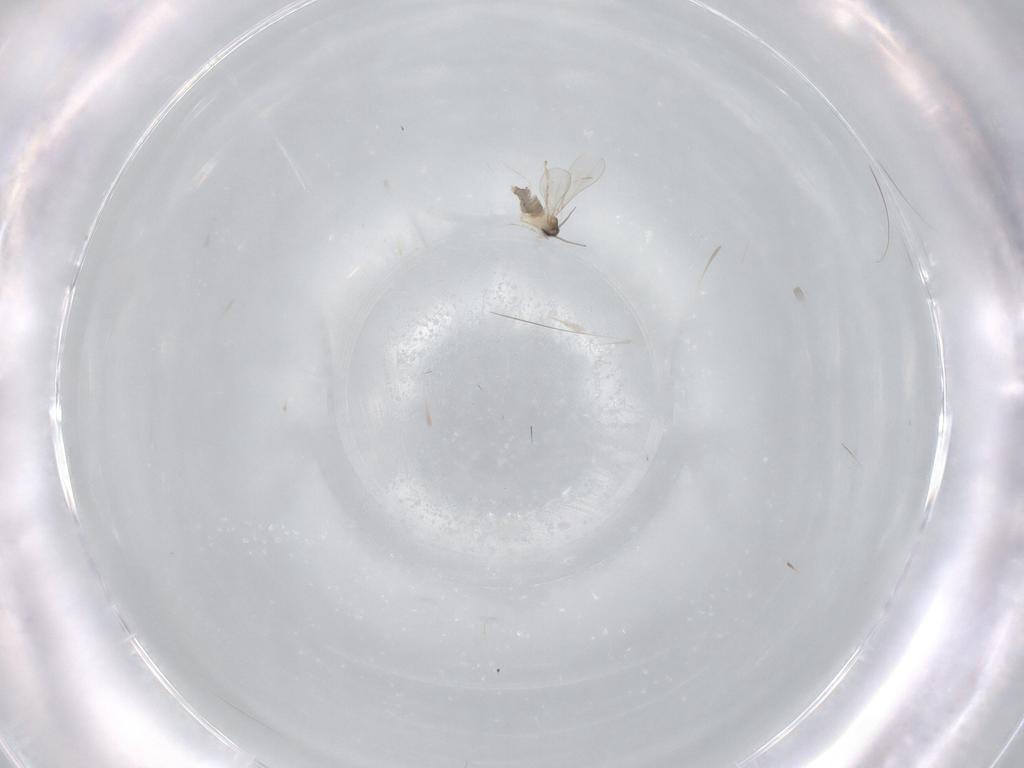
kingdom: Animalia
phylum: Arthropoda
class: Insecta
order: Diptera
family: Cecidomyiidae
